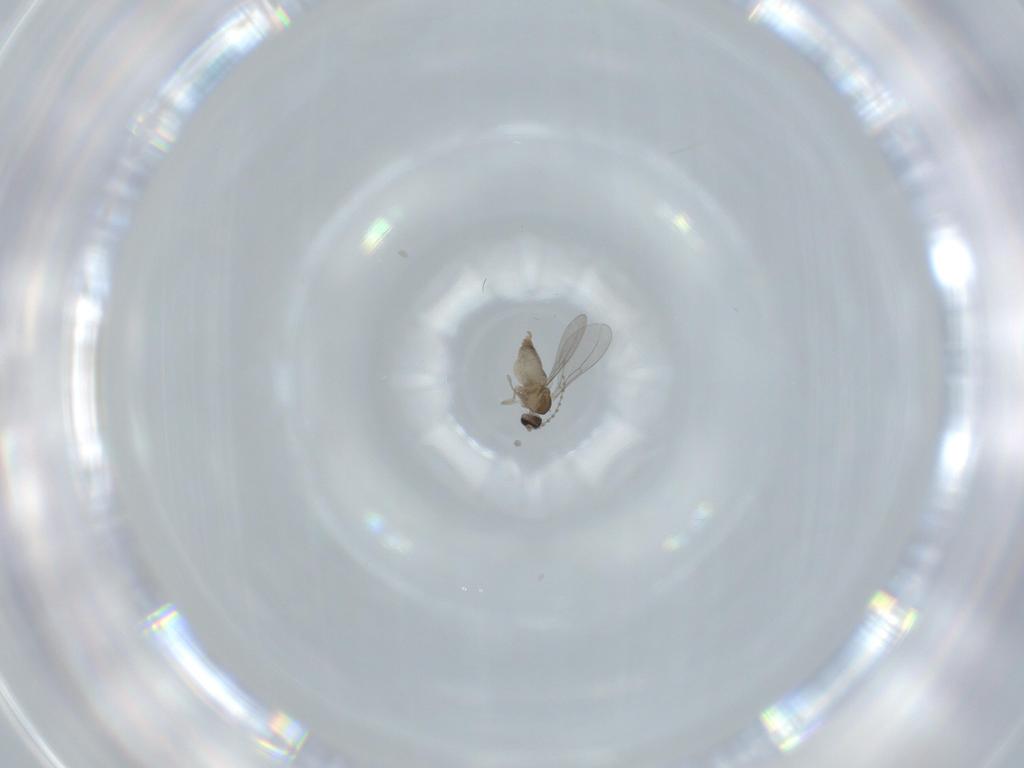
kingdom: Animalia
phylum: Arthropoda
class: Insecta
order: Diptera
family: Cecidomyiidae
